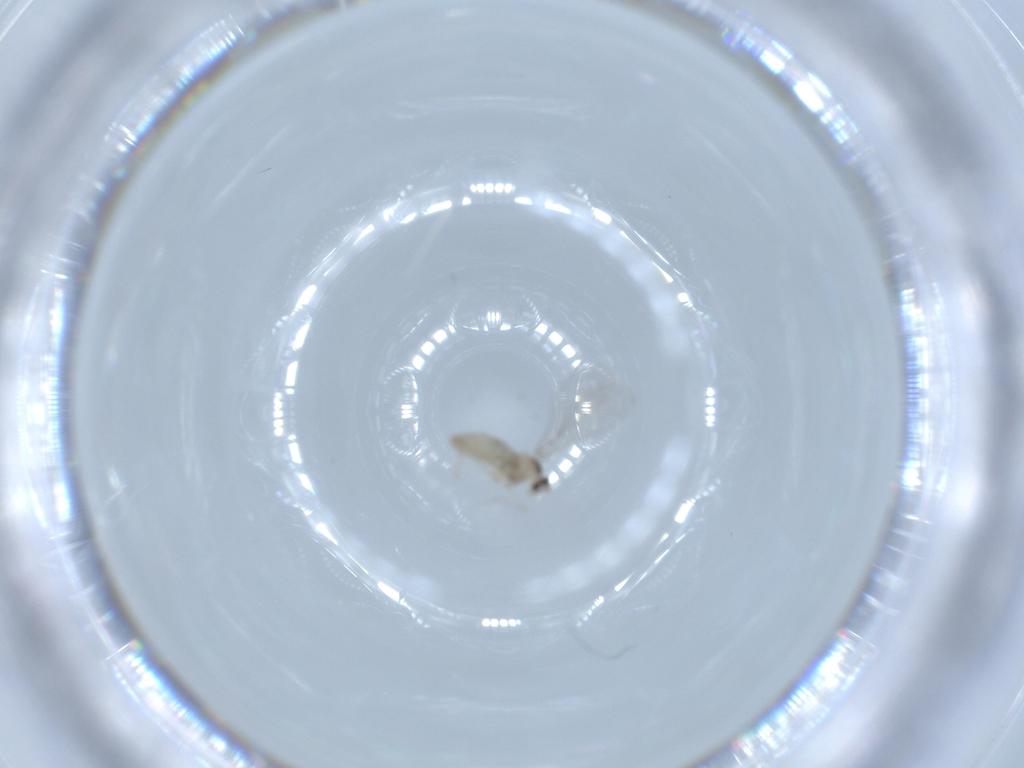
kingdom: Animalia
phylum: Arthropoda
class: Insecta
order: Diptera
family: Cecidomyiidae
